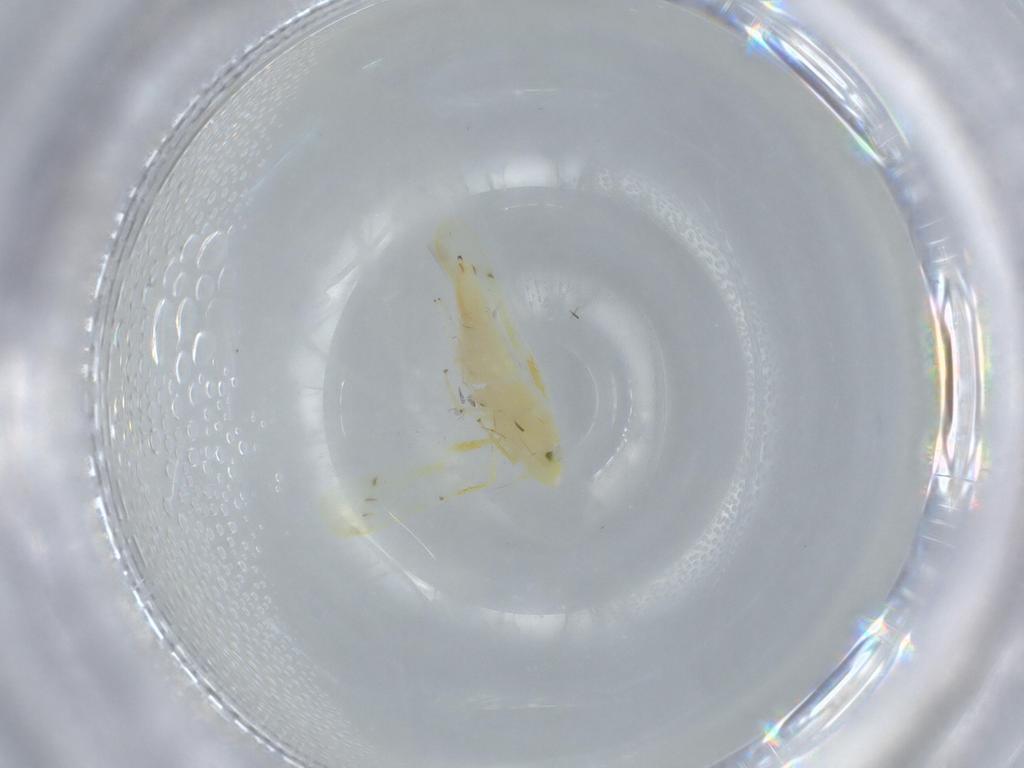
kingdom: Animalia
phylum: Arthropoda
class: Insecta
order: Hemiptera
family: Cicadellidae
